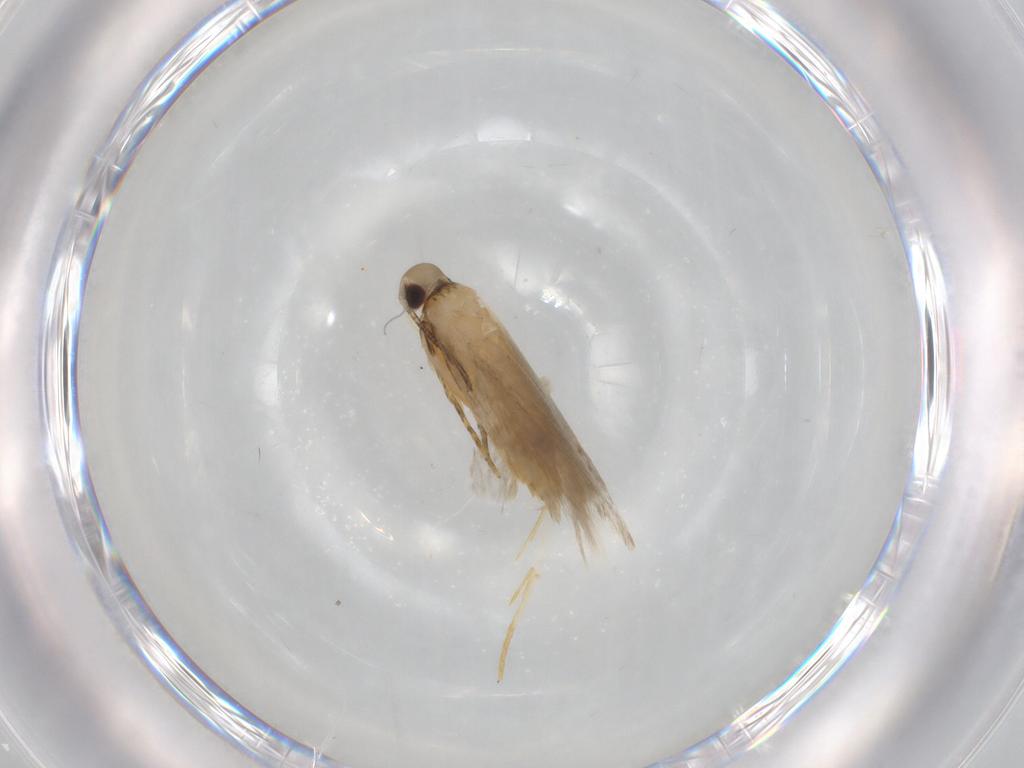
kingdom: Animalia
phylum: Arthropoda
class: Insecta
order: Lepidoptera
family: Autostichidae
